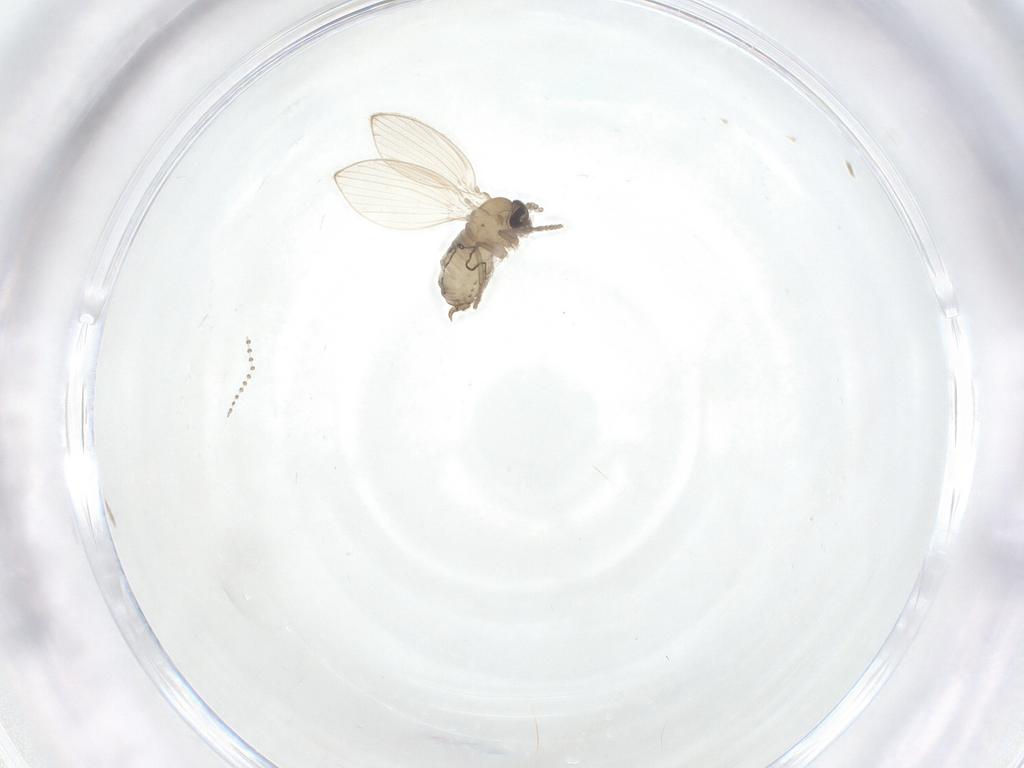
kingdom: Animalia
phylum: Arthropoda
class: Insecta
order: Diptera
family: Psychodidae
